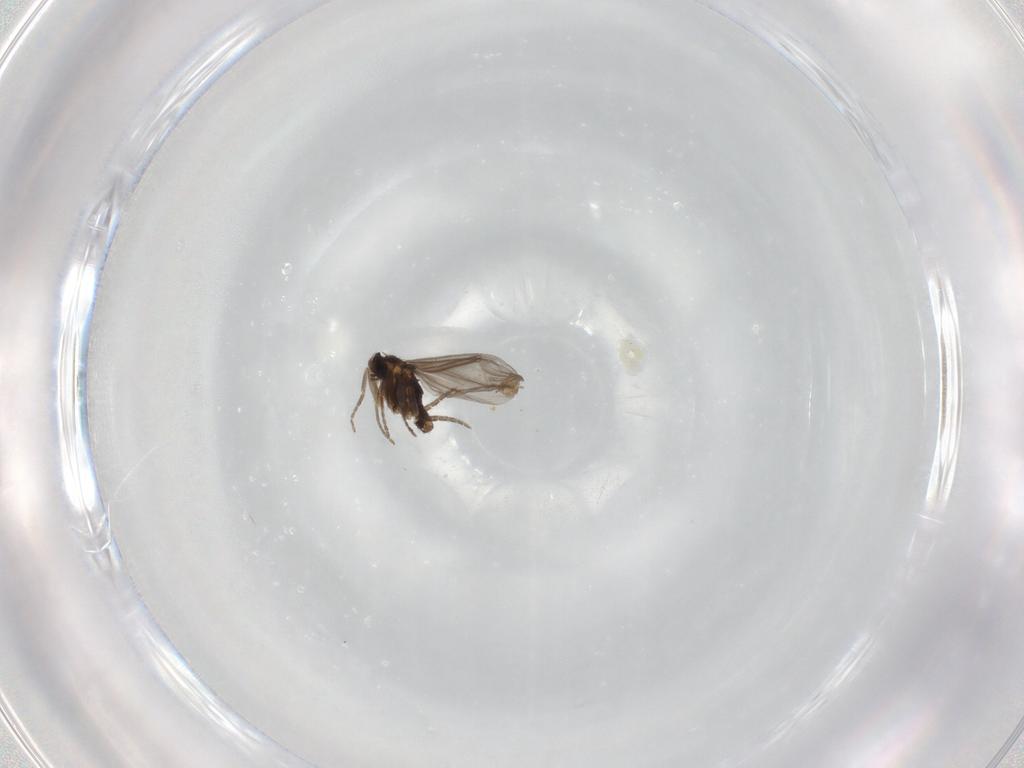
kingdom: Animalia
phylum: Arthropoda
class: Insecta
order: Diptera
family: Phoridae
